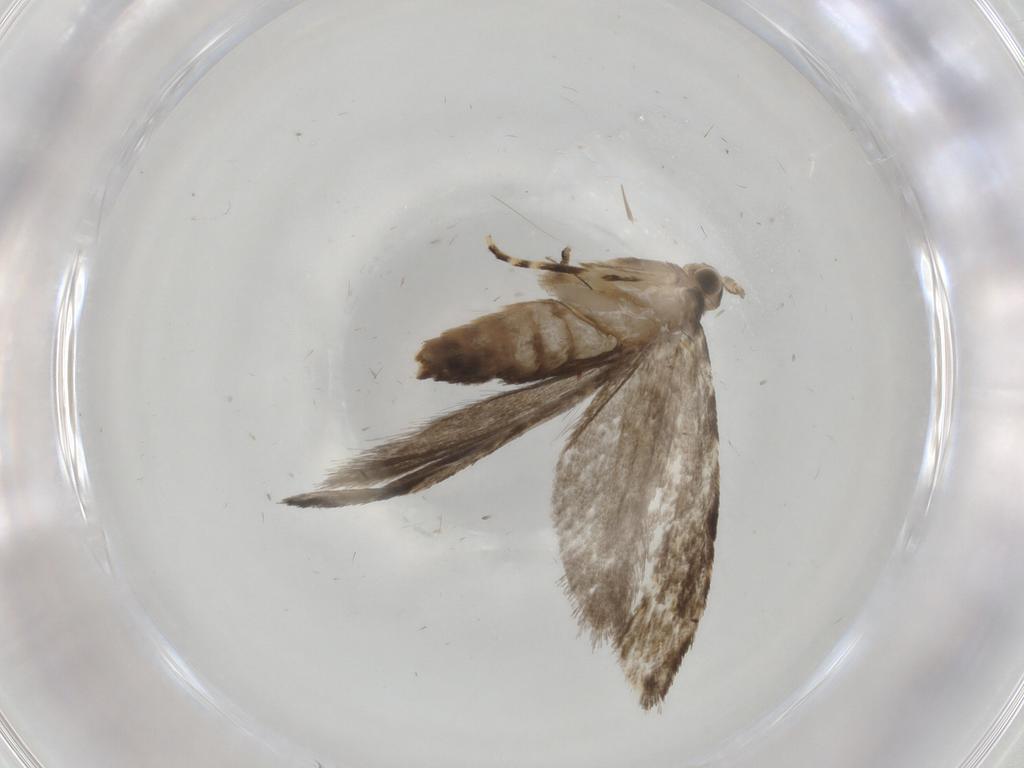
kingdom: Animalia
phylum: Arthropoda
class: Insecta
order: Lepidoptera
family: Tineidae
